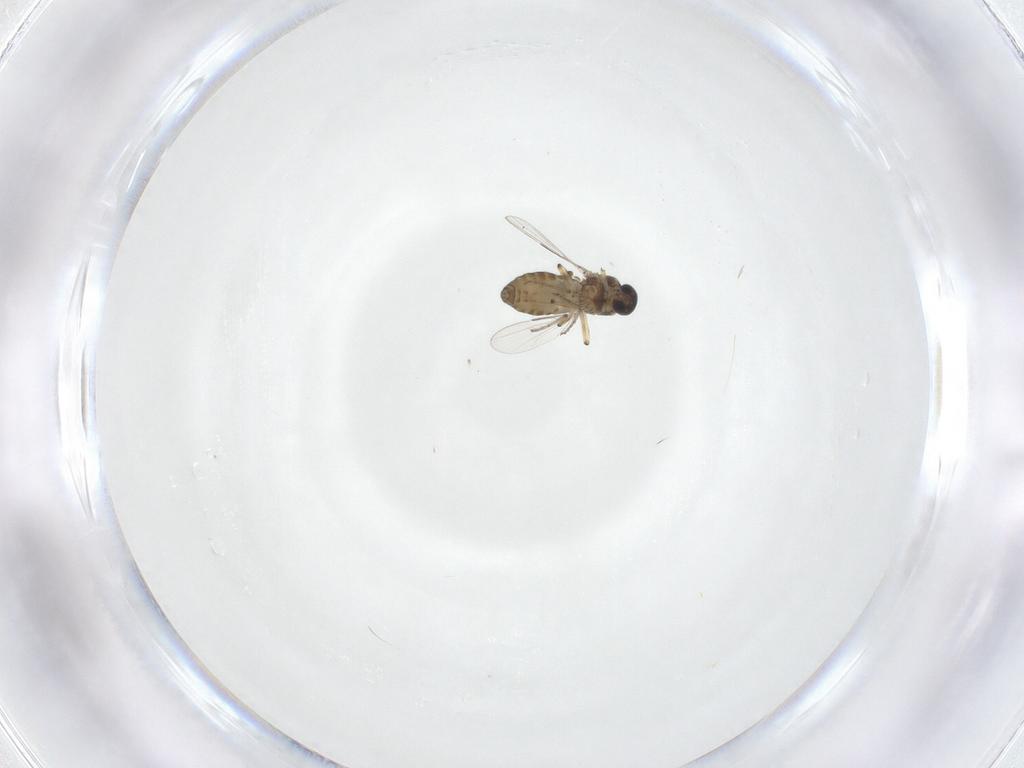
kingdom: Animalia
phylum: Arthropoda
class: Insecta
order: Diptera
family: Ceratopogonidae
